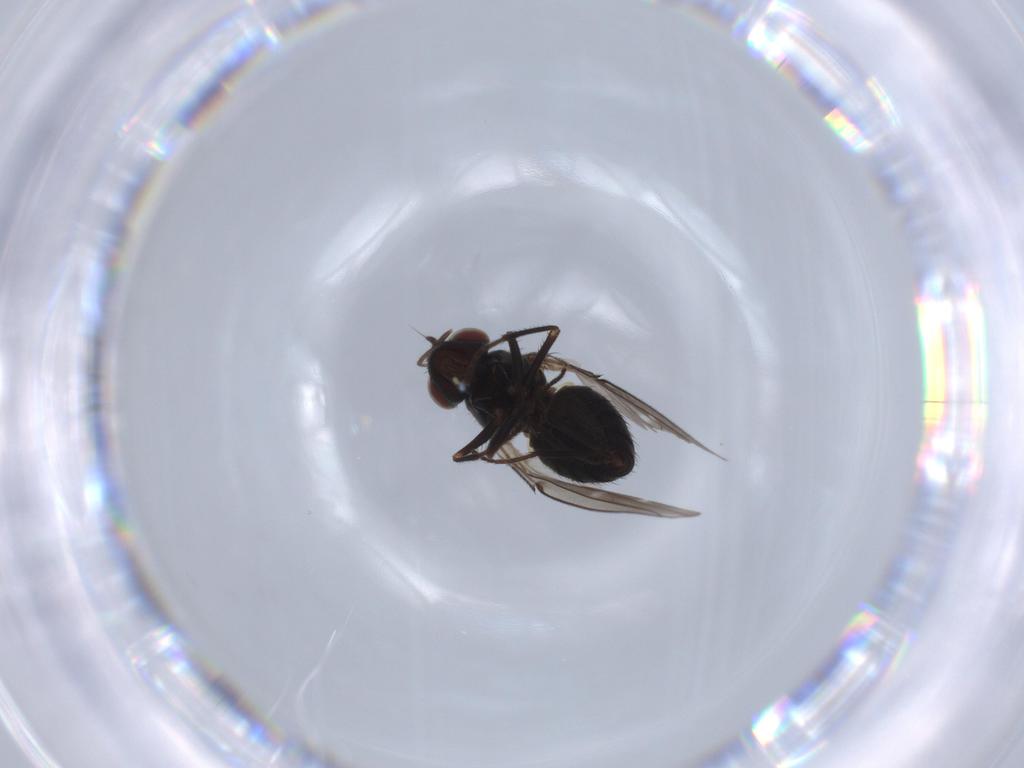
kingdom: Animalia
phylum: Arthropoda
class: Insecta
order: Diptera
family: Ephydridae
